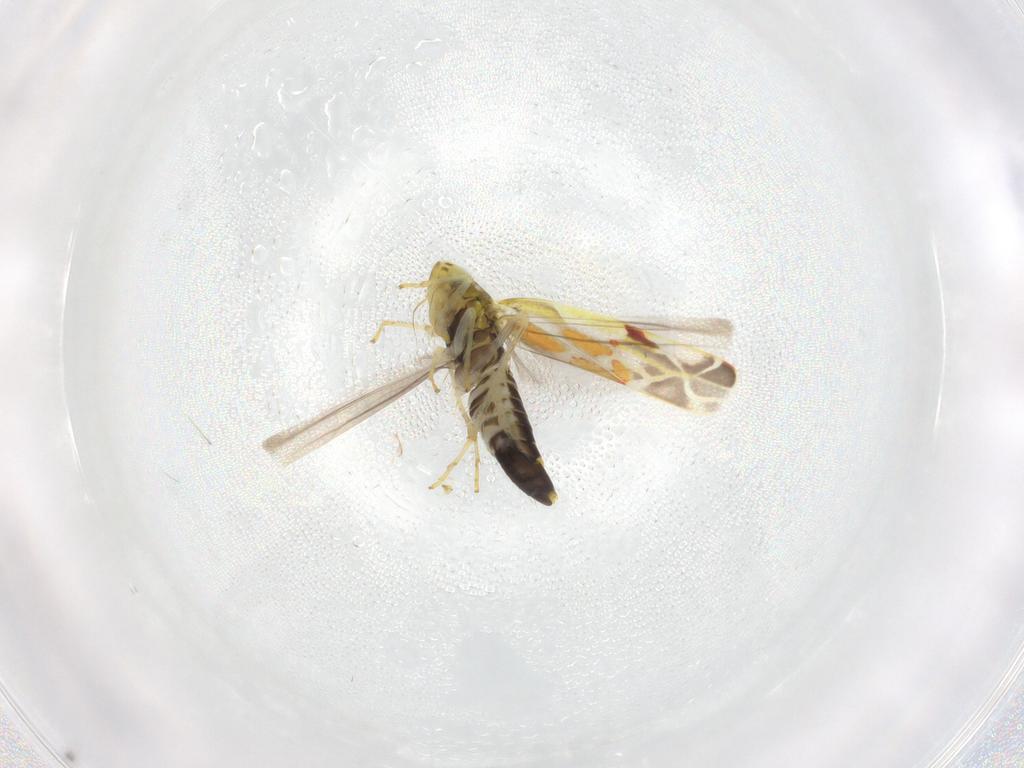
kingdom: Animalia
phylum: Arthropoda
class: Insecta
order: Hemiptera
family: Cicadellidae
